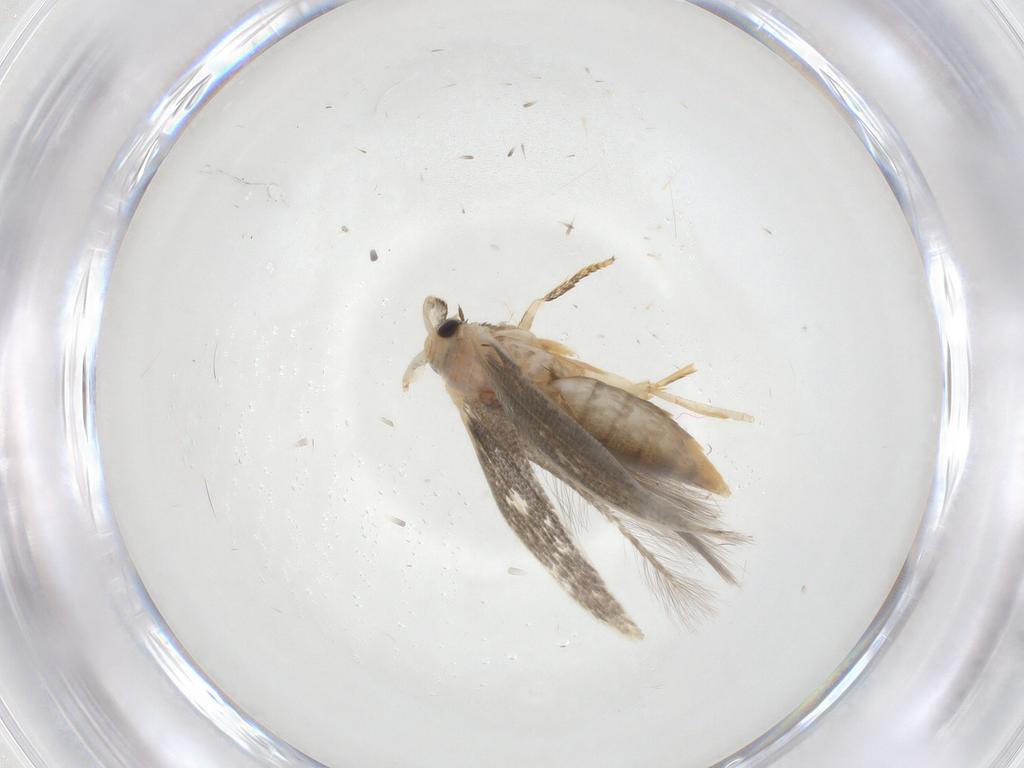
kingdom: Animalia
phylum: Arthropoda
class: Insecta
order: Lepidoptera
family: Opostegidae
